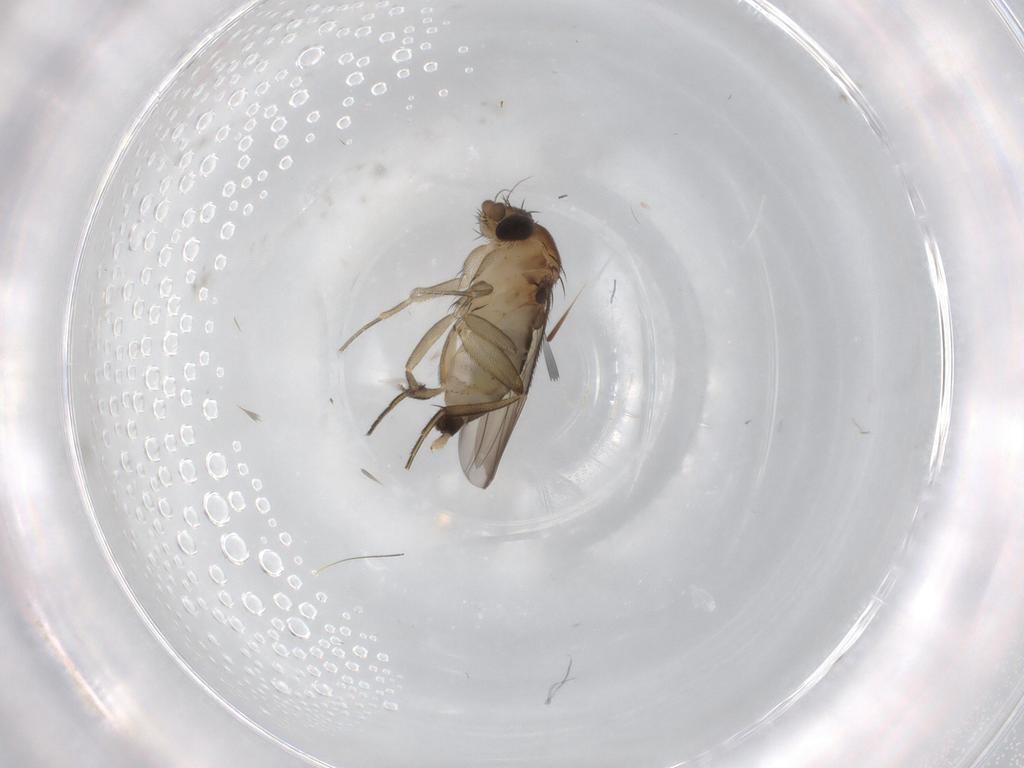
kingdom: Animalia
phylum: Arthropoda
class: Insecta
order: Diptera
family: Phoridae
